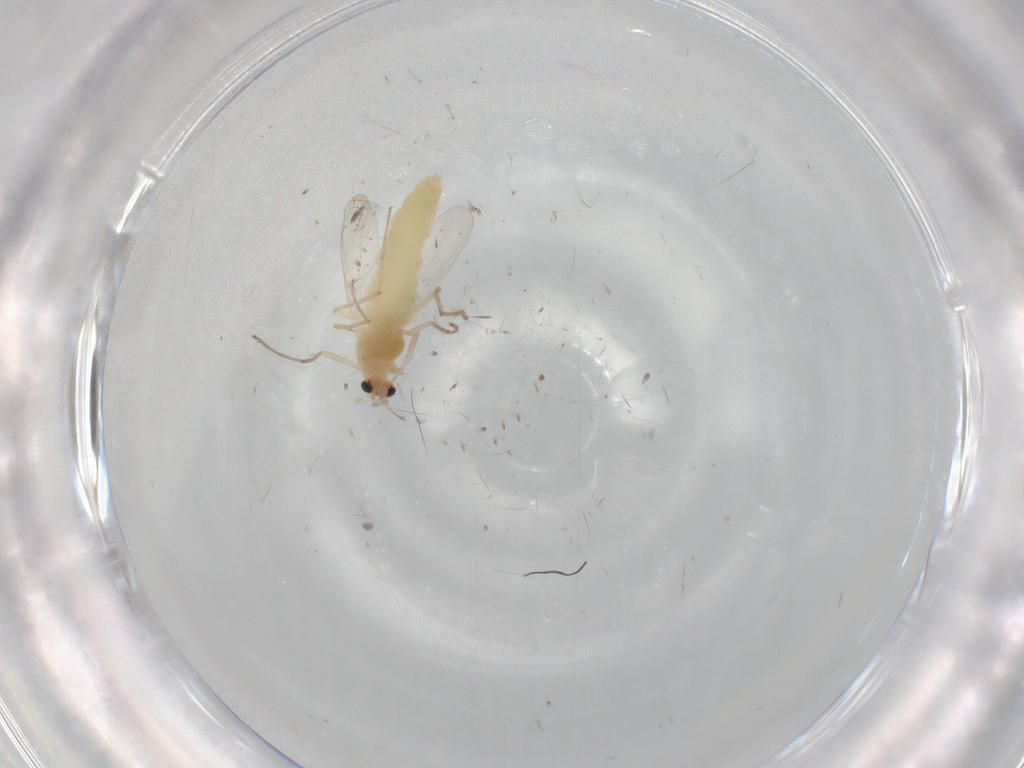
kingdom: Animalia
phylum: Arthropoda
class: Insecta
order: Diptera
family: Chironomidae
